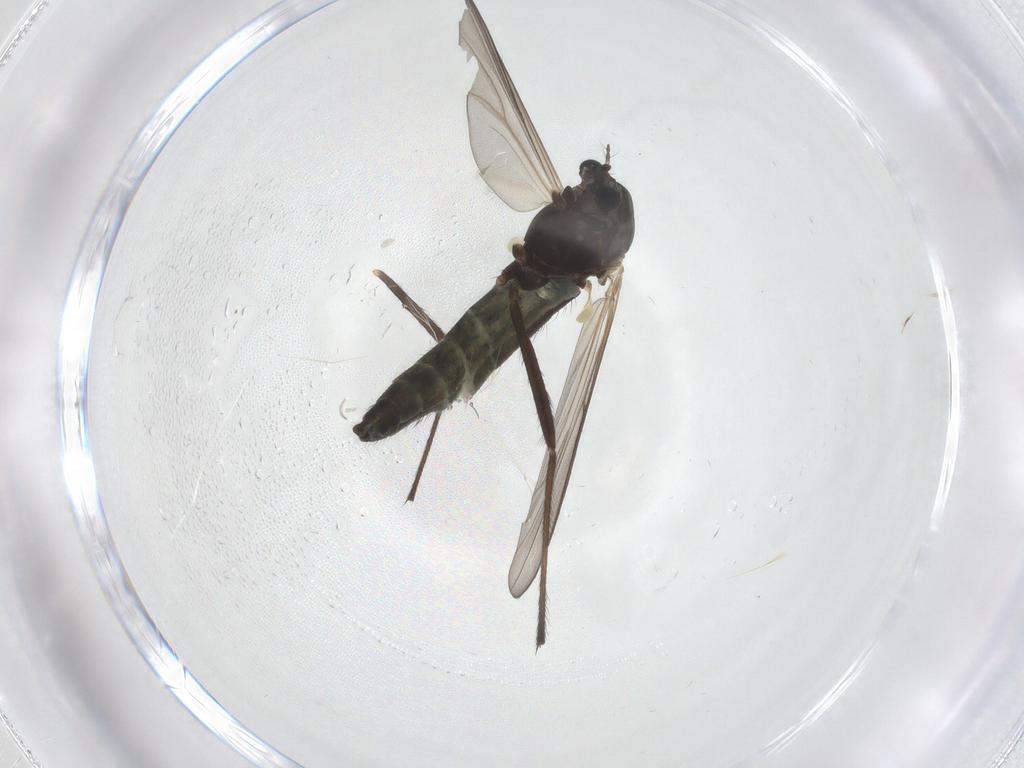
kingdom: Animalia
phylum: Arthropoda
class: Insecta
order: Diptera
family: Chironomidae
